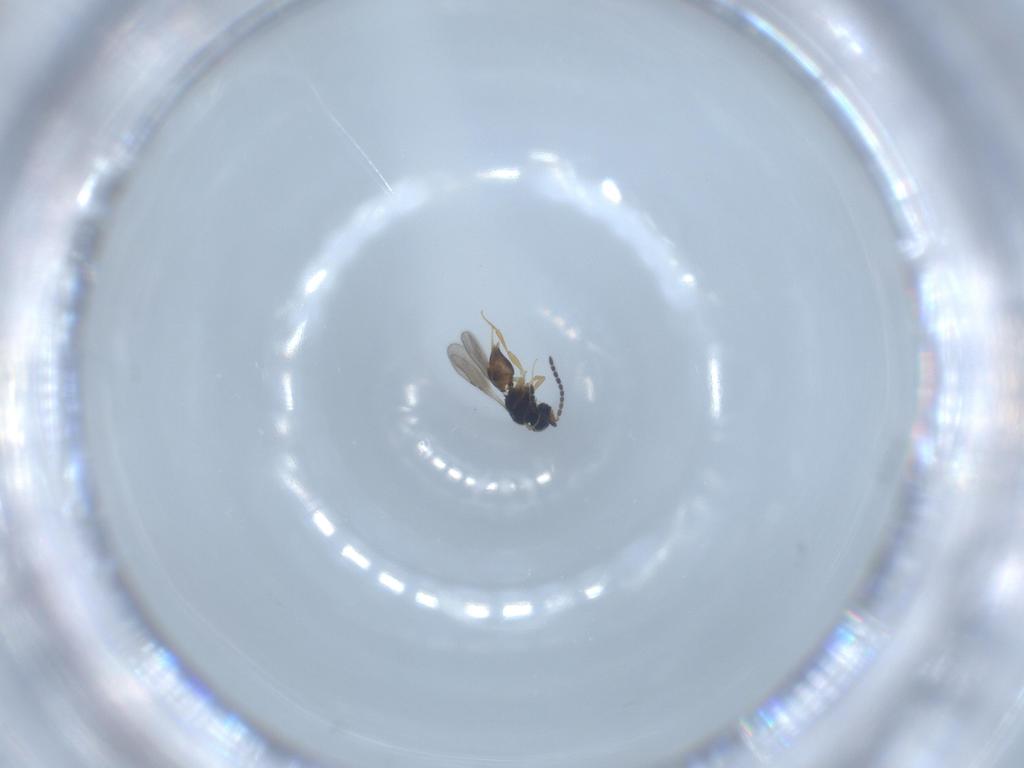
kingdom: Animalia
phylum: Arthropoda
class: Insecta
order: Hymenoptera
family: Ceraphronidae
